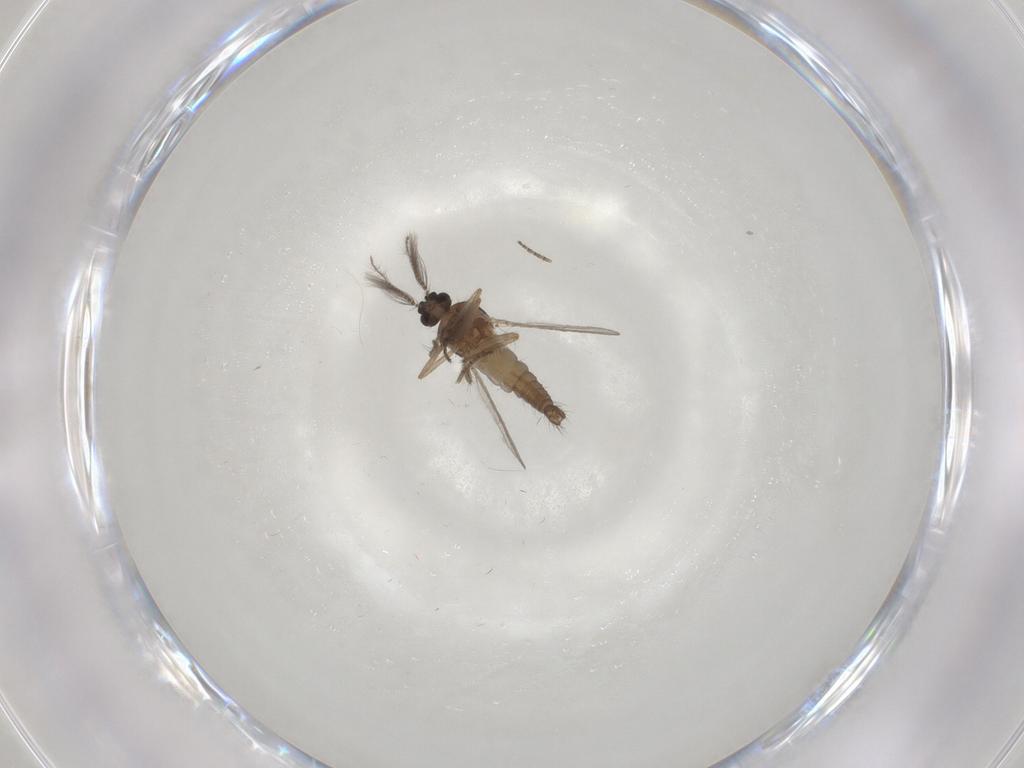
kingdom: Animalia
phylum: Arthropoda
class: Insecta
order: Diptera
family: Ceratopogonidae
